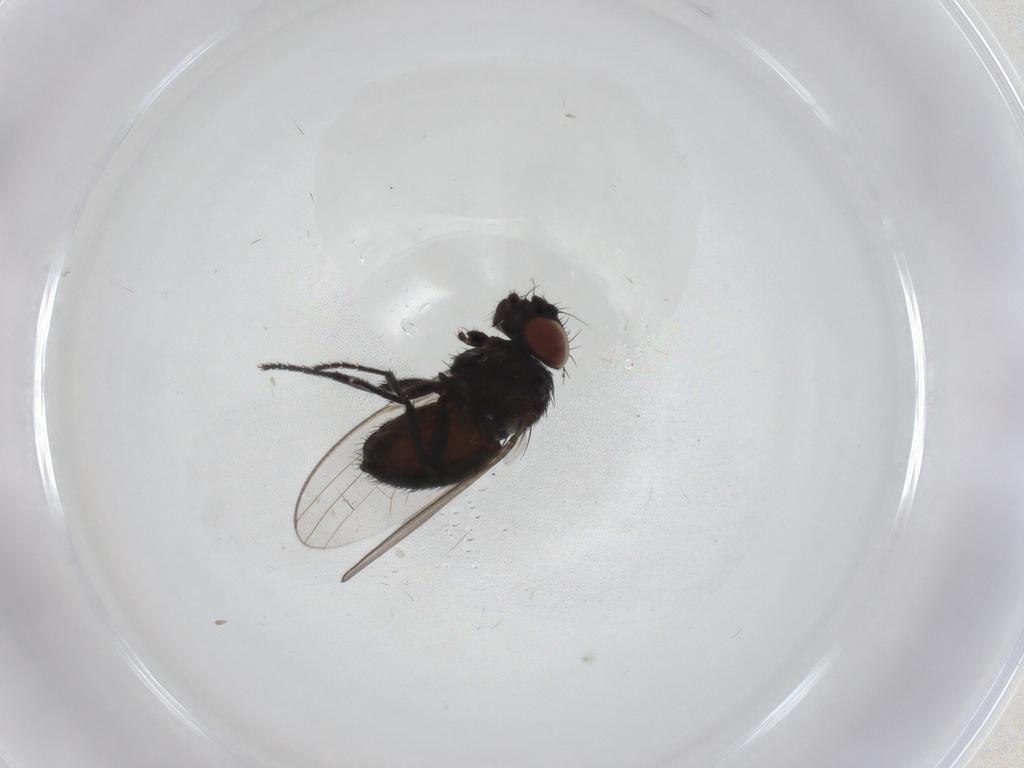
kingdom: Animalia
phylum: Arthropoda
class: Insecta
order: Diptera
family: Milichiidae
